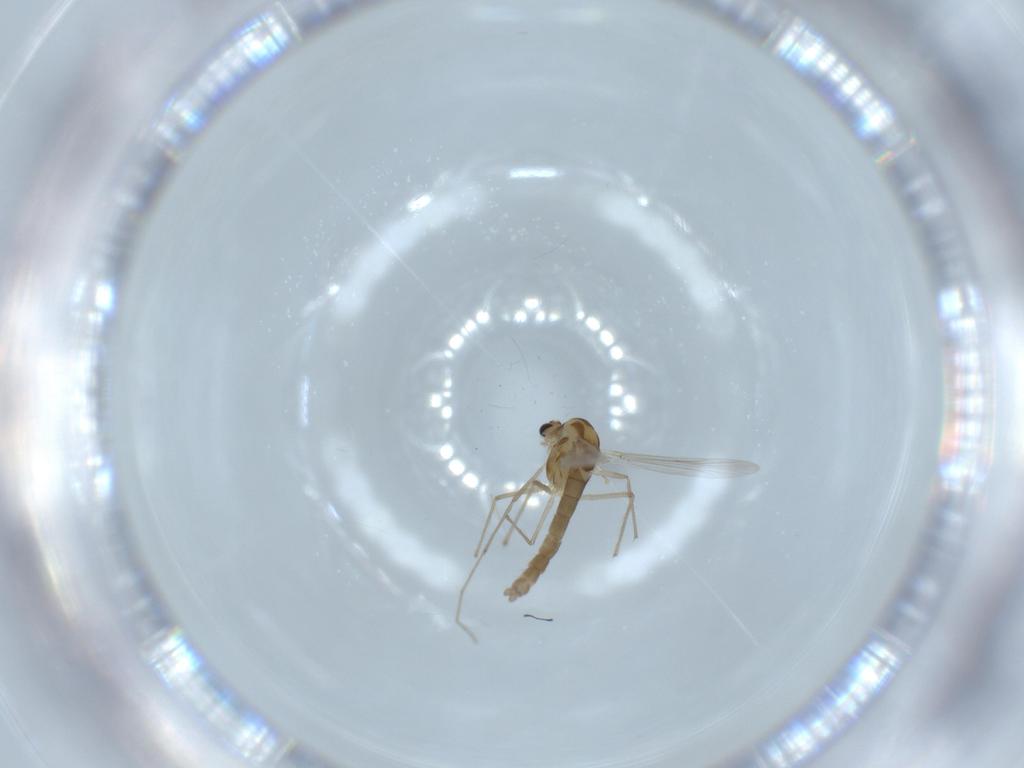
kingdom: Animalia
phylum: Arthropoda
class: Insecta
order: Diptera
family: Chironomidae
